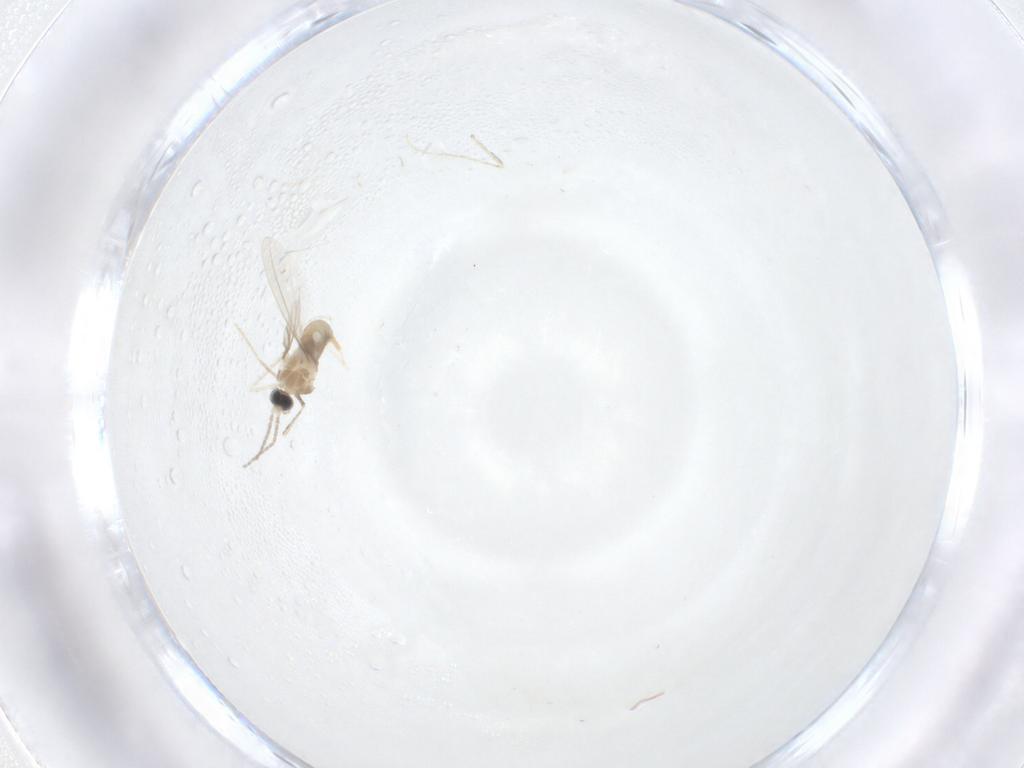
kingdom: Animalia
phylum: Arthropoda
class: Insecta
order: Diptera
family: Cecidomyiidae
